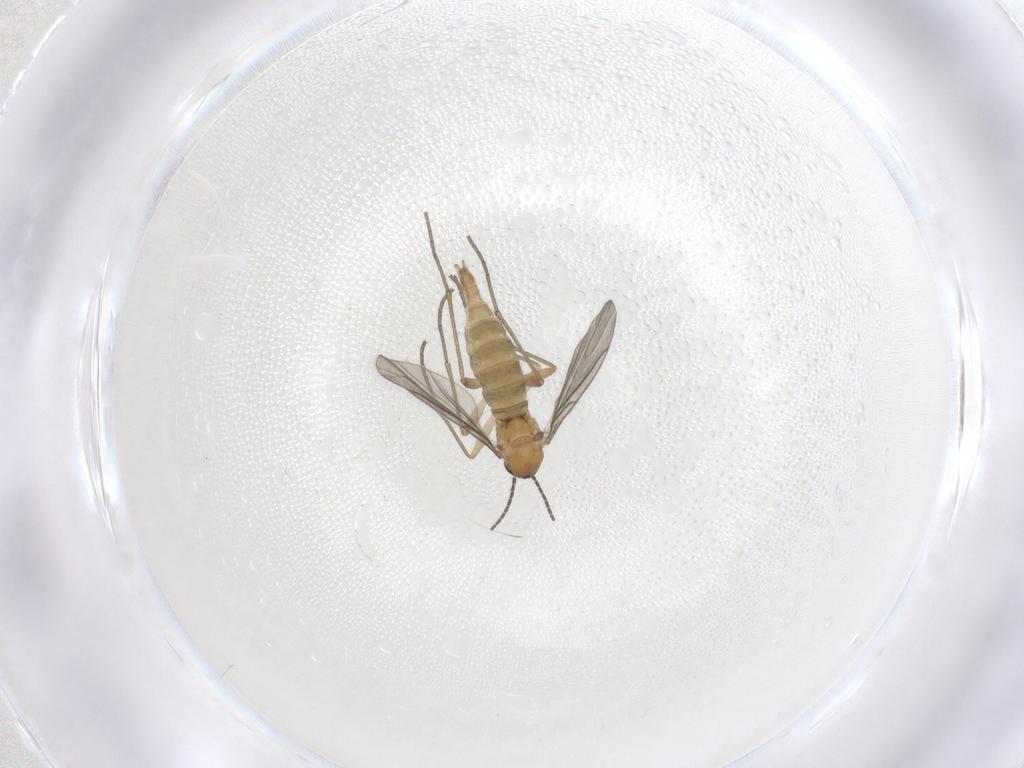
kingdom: Animalia
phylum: Arthropoda
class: Insecta
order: Diptera
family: Sciaridae
